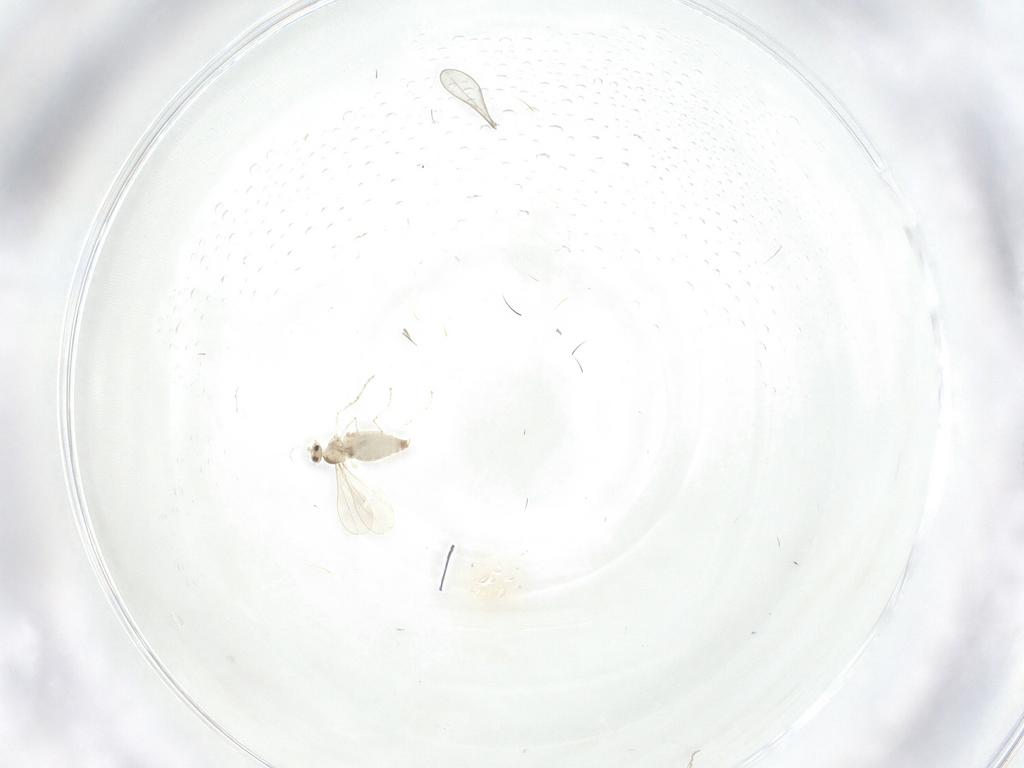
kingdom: Animalia
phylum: Arthropoda
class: Insecta
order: Diptera
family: Cecidomyiidae
